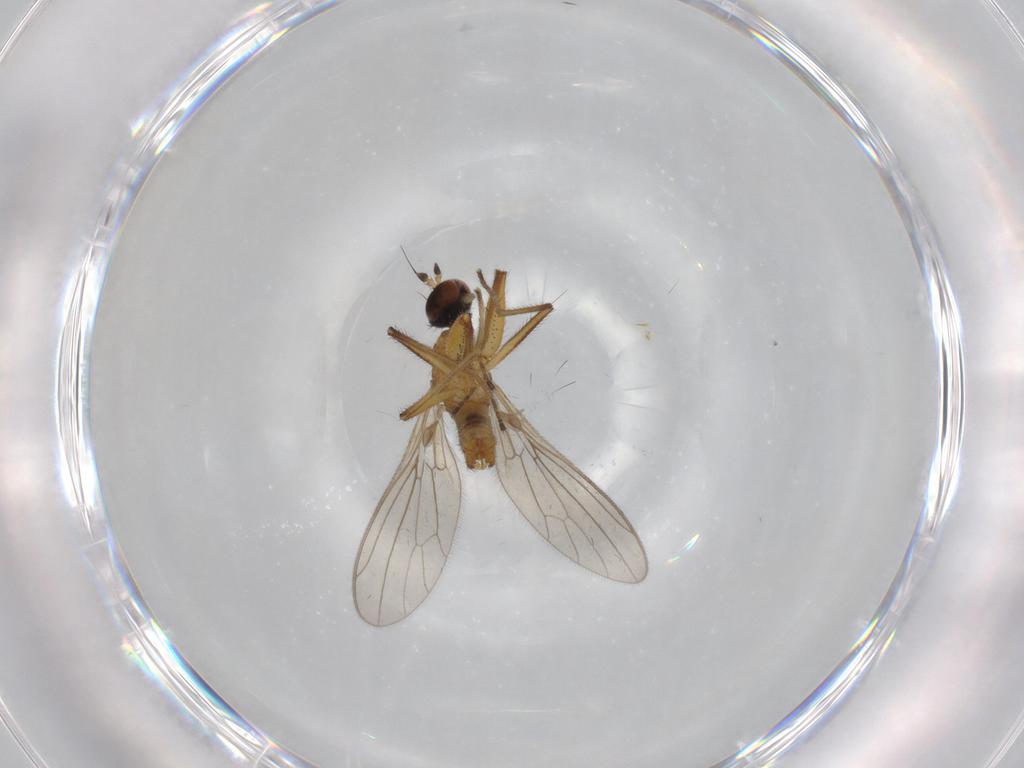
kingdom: Animalia
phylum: Arthropoda
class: Insecta
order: Diptera
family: Empididae
